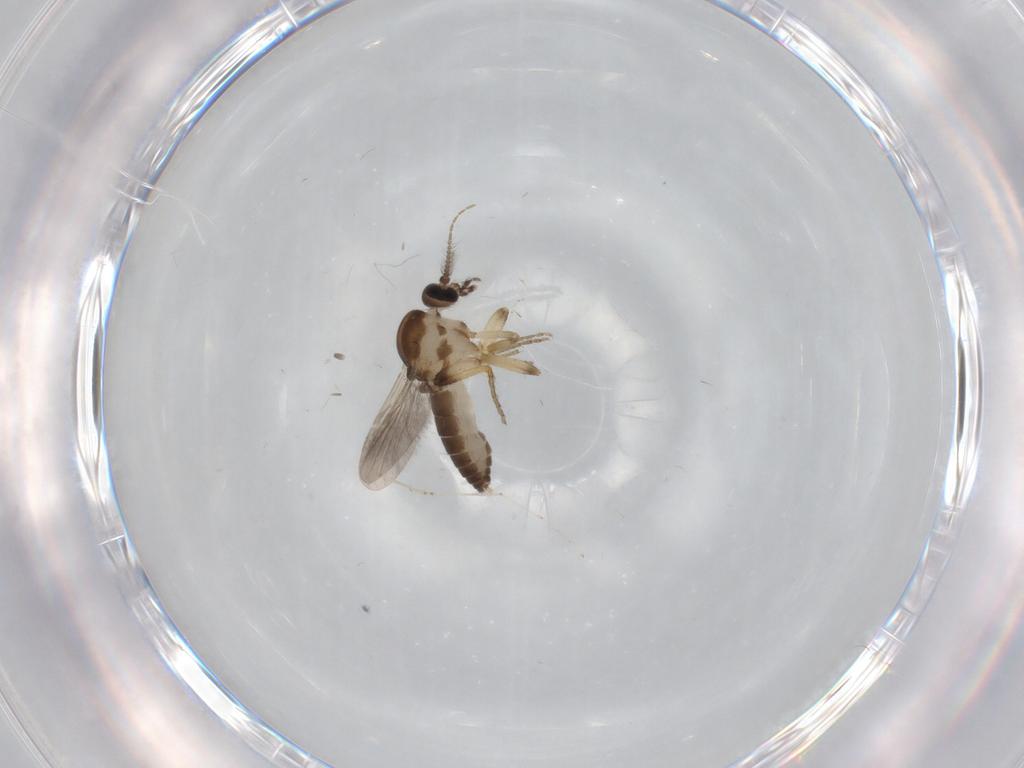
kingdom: Animalia
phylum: Arthropoda
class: Insecta
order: Diptera
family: Ceratopogonidae
